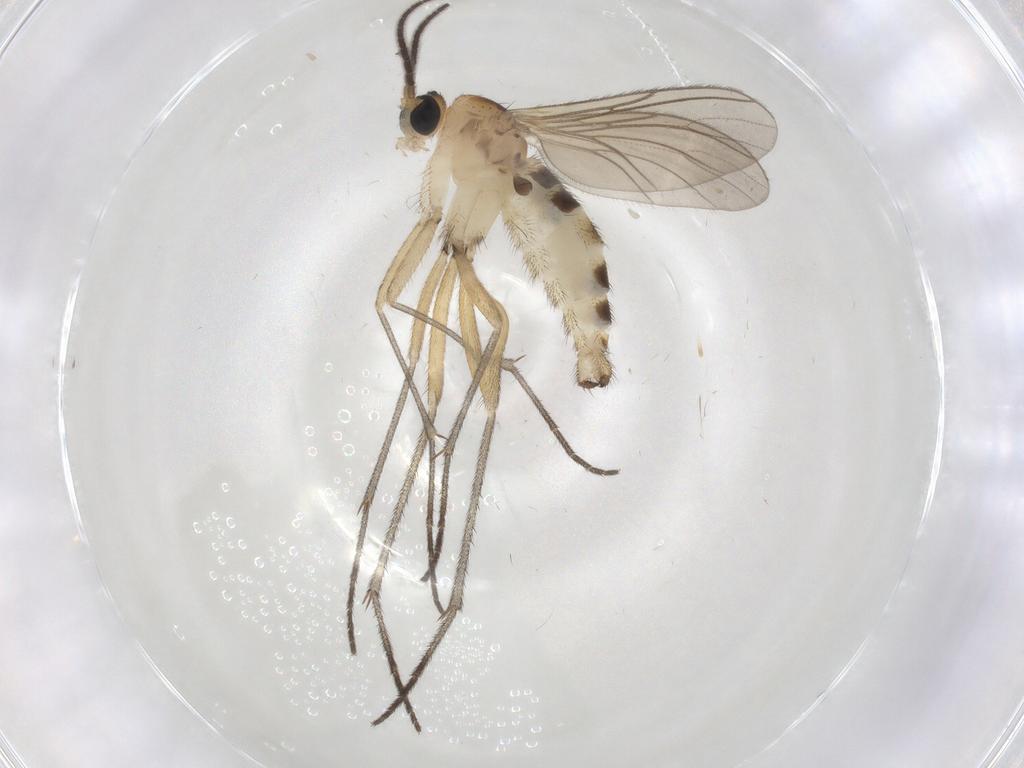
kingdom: Animalia
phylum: Arthropoda
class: Insecta
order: Diptera
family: Sciaridae
